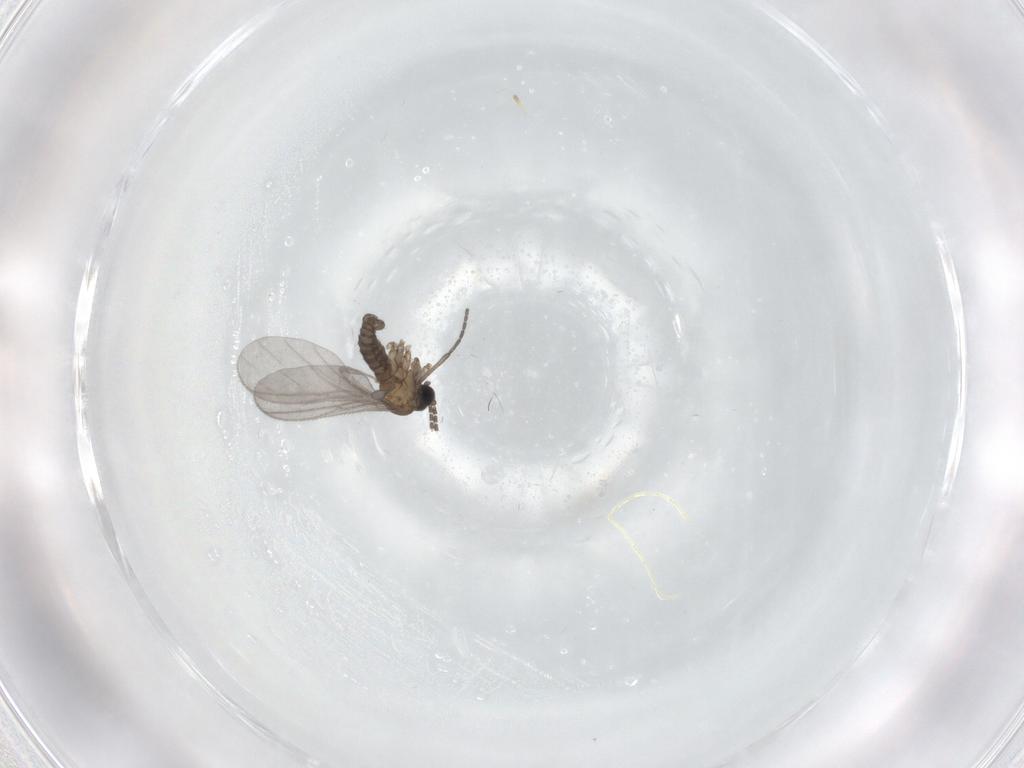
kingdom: Animalia
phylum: Arthropoda
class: Insecta
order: Diptera
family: Sciaridae
